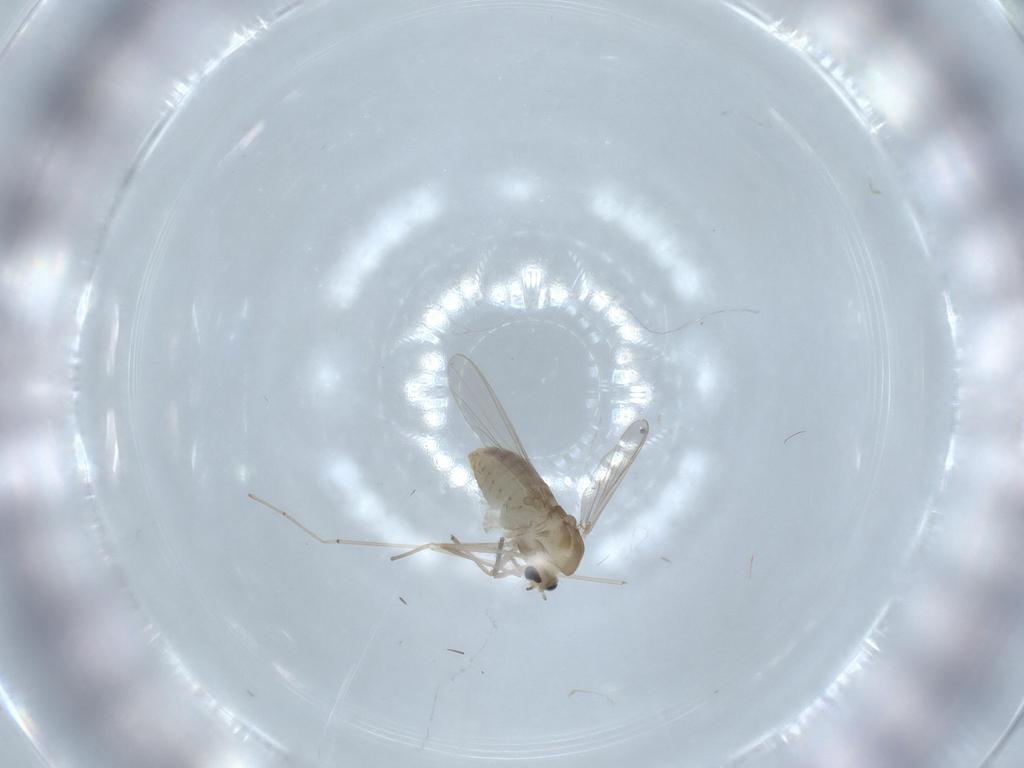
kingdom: Animalia
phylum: Arthropoda
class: Insecta
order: Diptera
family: Chironomidae
